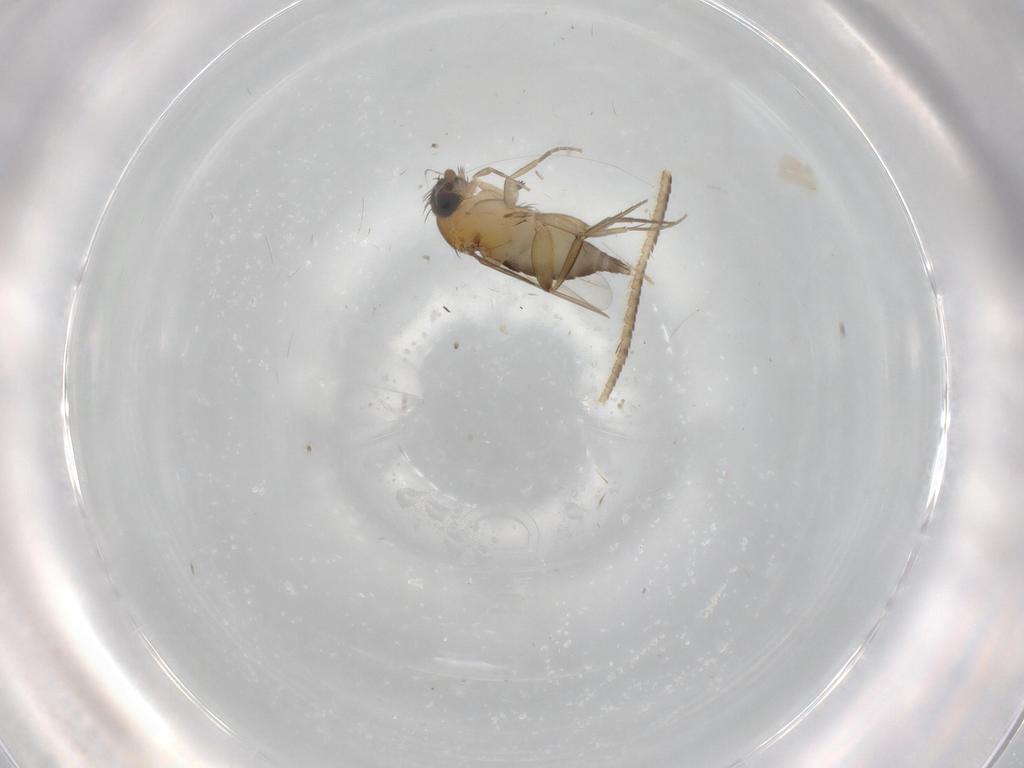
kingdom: Animalia
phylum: Arthropoda
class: Insecta
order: Diptera
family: Phoridae
